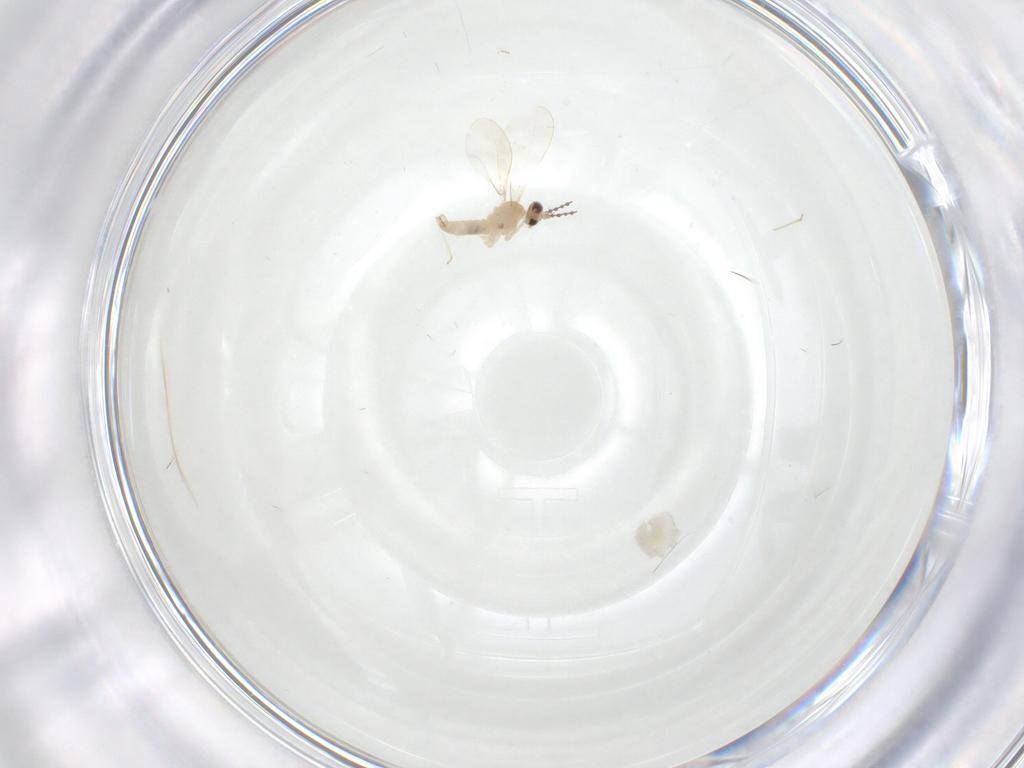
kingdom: Animalia
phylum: Arthropoda
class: Insecta
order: Diptera
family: Cecidomyiidae
